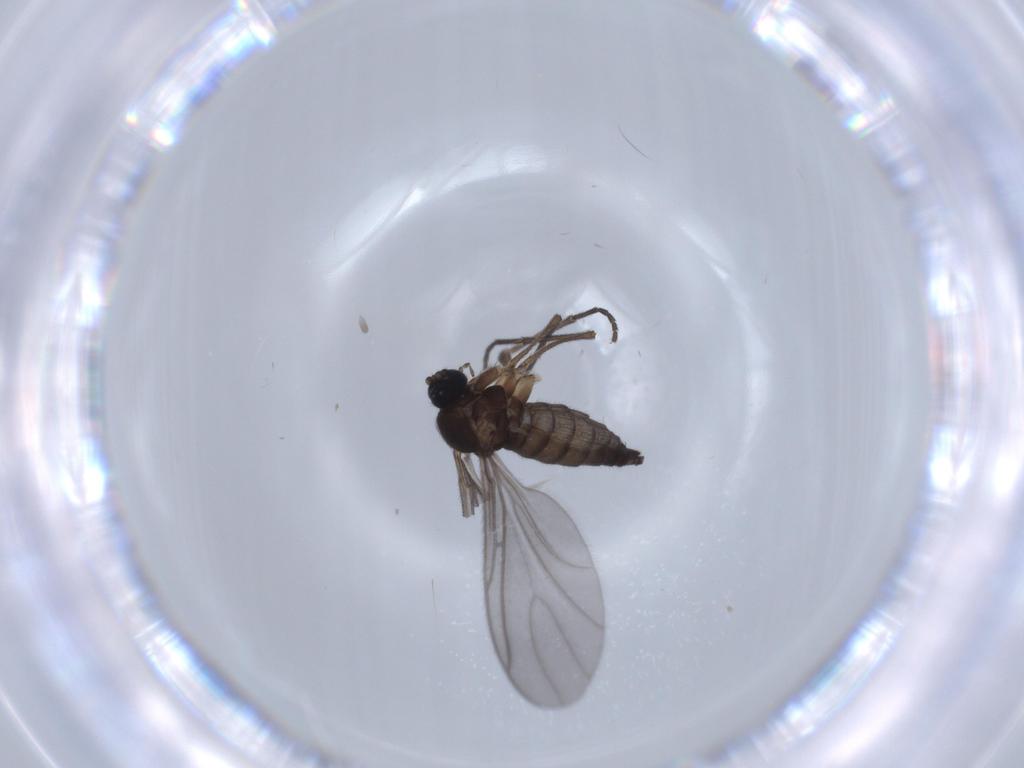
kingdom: Animalia
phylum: Arthropoda
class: Insecta
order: Diptera
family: Sciaridae
